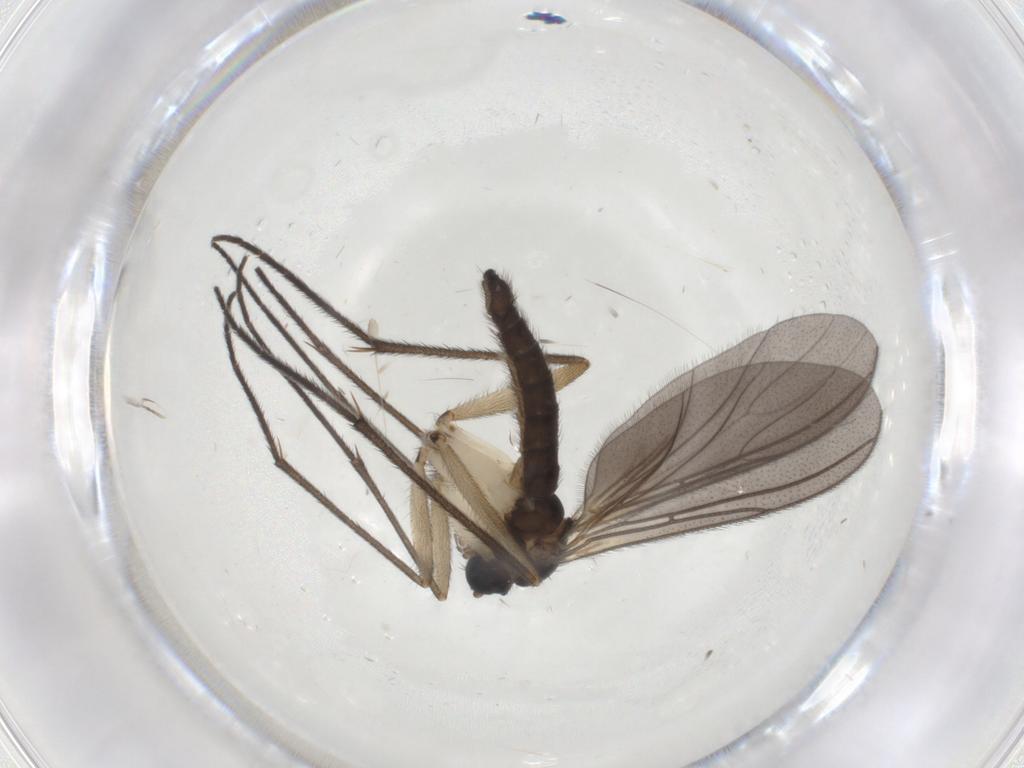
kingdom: Animalia
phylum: Arthropoda
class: Insecta
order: Diptera
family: Sciaridae
